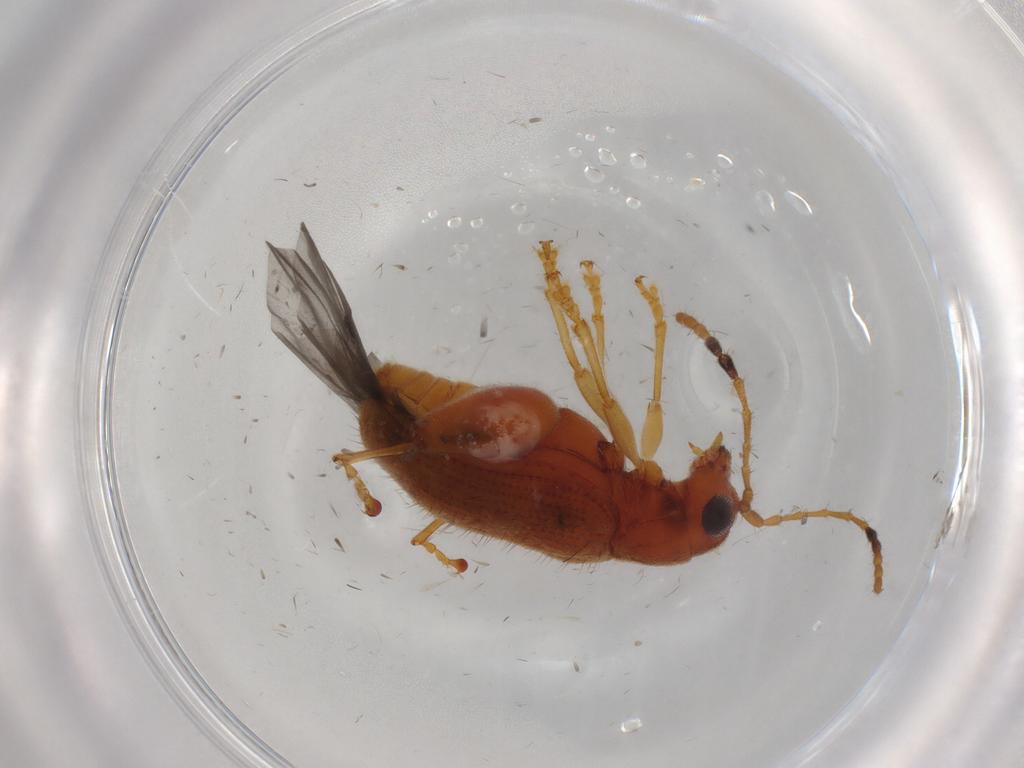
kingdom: Animalia
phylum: Arthropoda
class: Insecta
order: Coleoptera
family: Chrysomelidae
